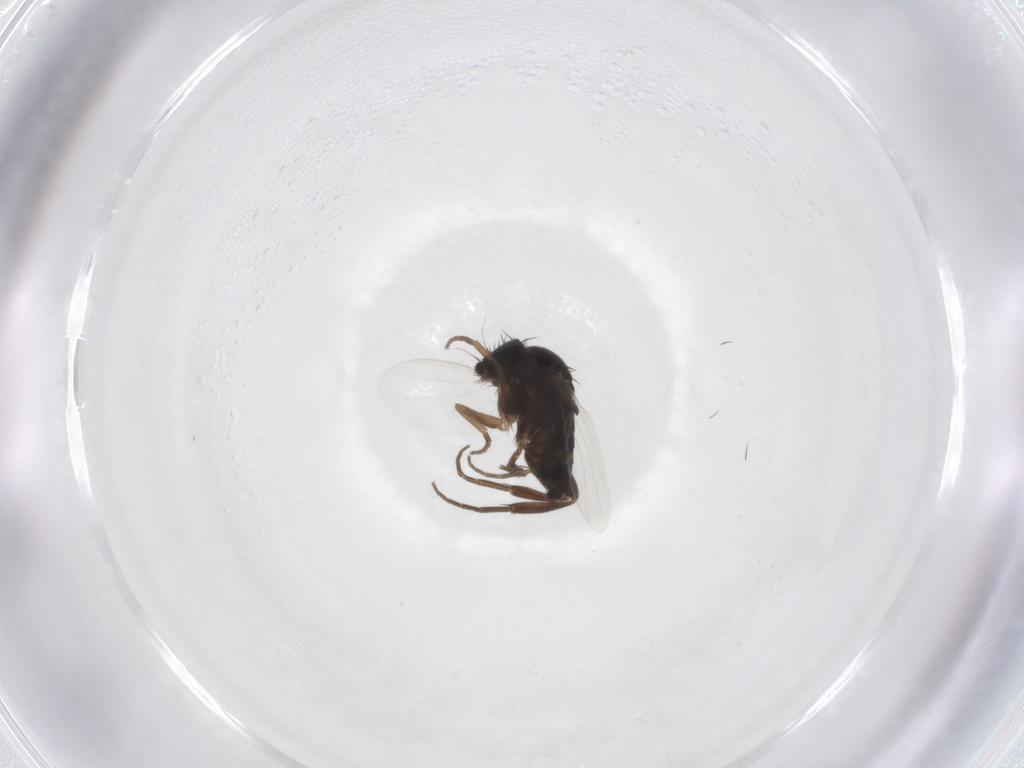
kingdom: Animalia
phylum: Arthropoda
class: Insecta
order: Diptera
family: Phoridae
